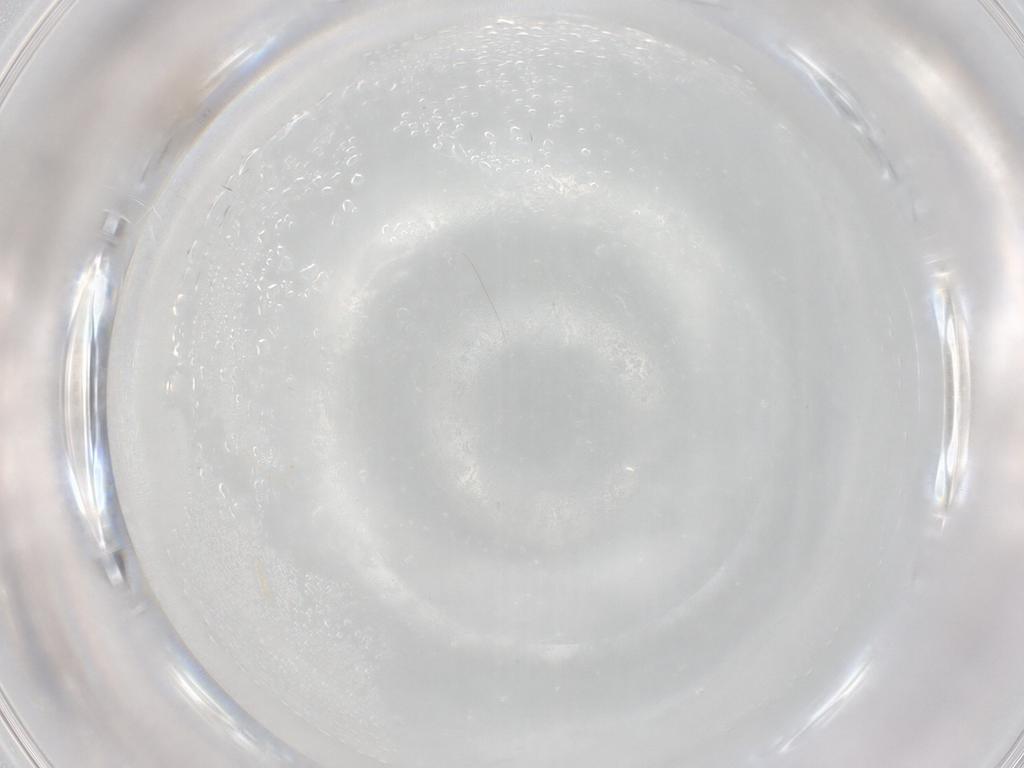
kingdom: Animalia
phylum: Arthropoda
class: Insecta
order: Diptera
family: Cecidomyiidae
